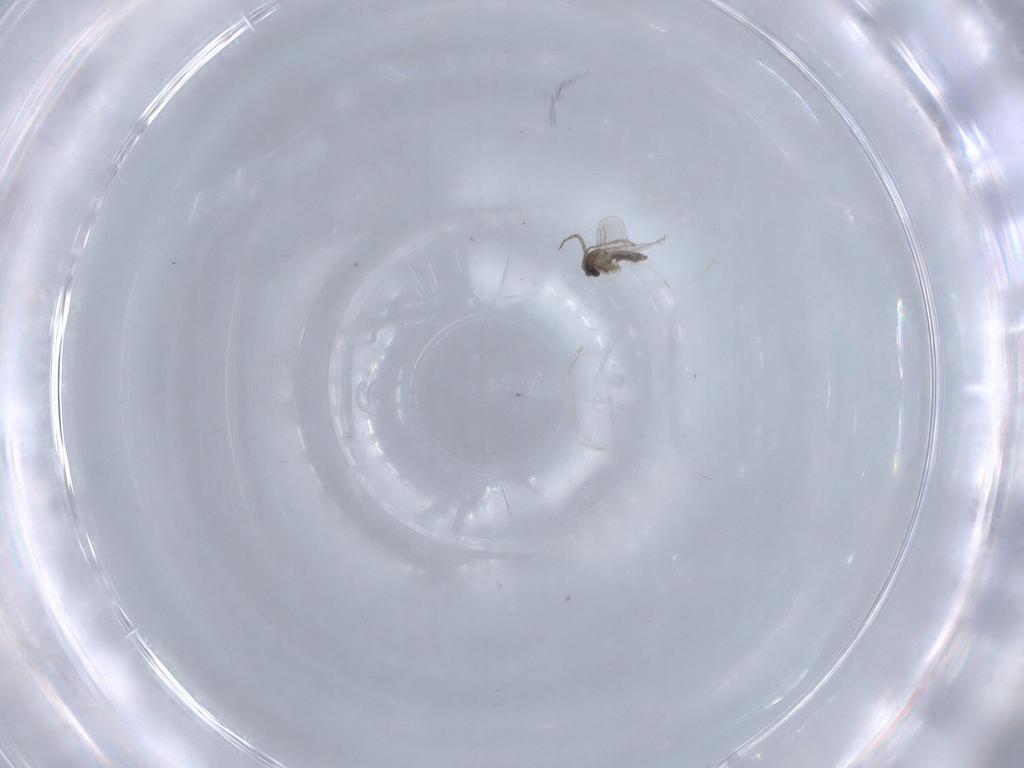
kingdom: Animalia
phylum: Arthropoda
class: Insecta
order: Diptera
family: Cecidomyiidae
